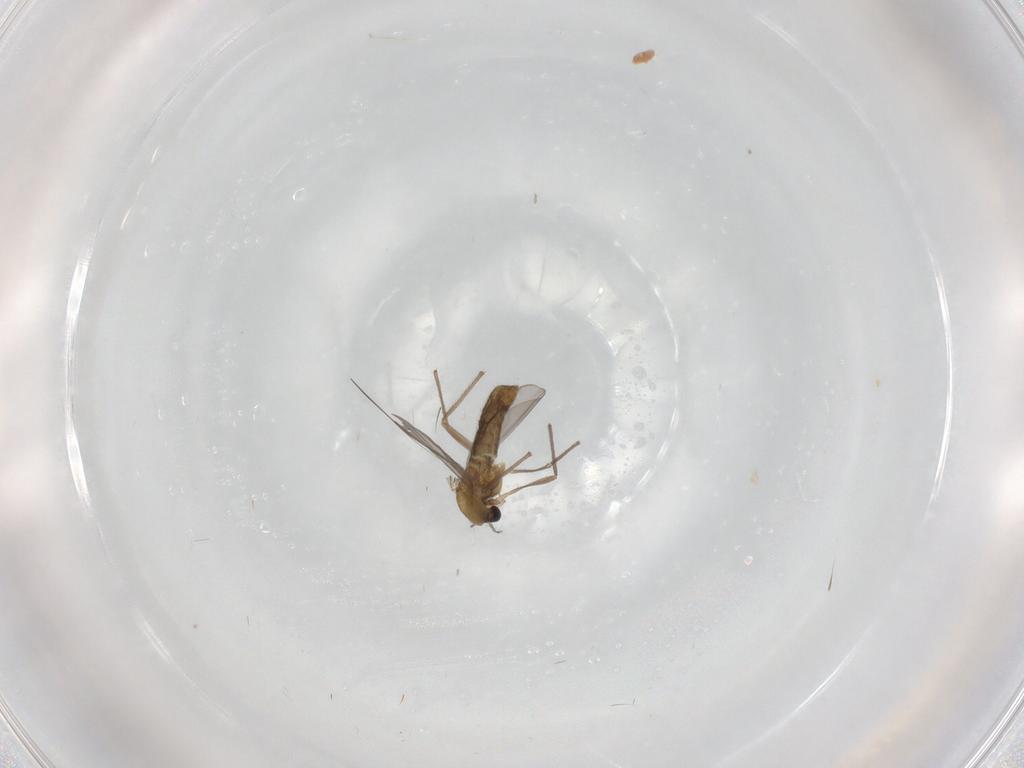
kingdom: Animalia
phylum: Arthropoda
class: Insecta
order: Diptera
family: Chironomidae
